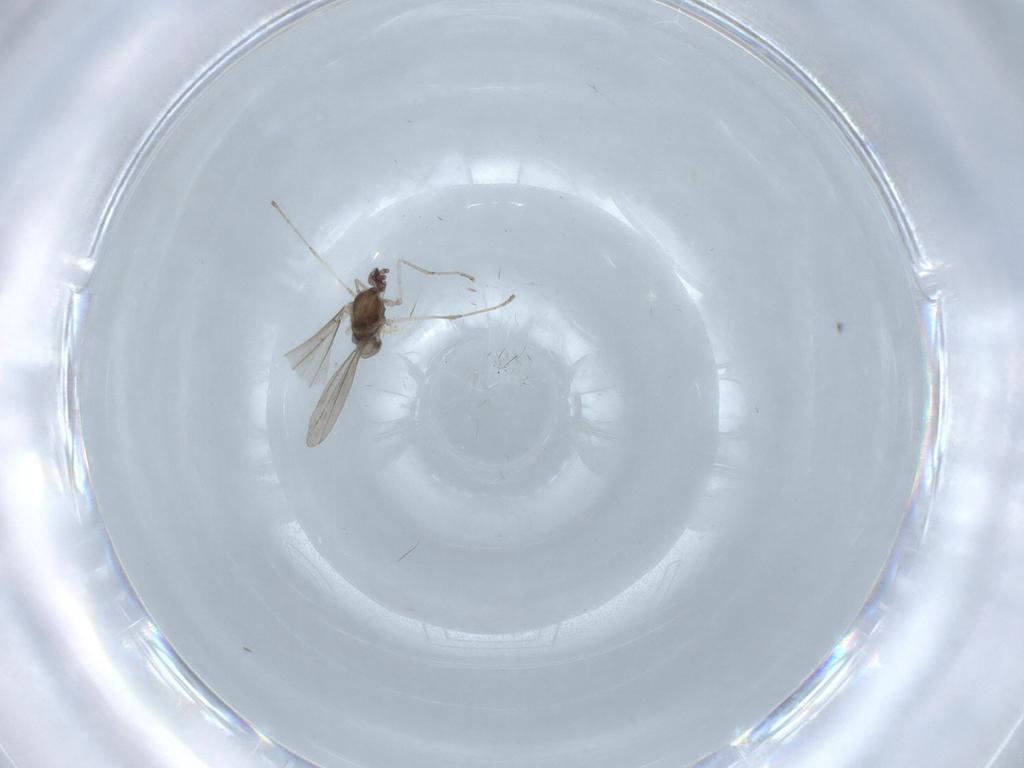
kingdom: Animalia
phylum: Arthropoda
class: Insecta
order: Diptera
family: Cecidomyiidae
